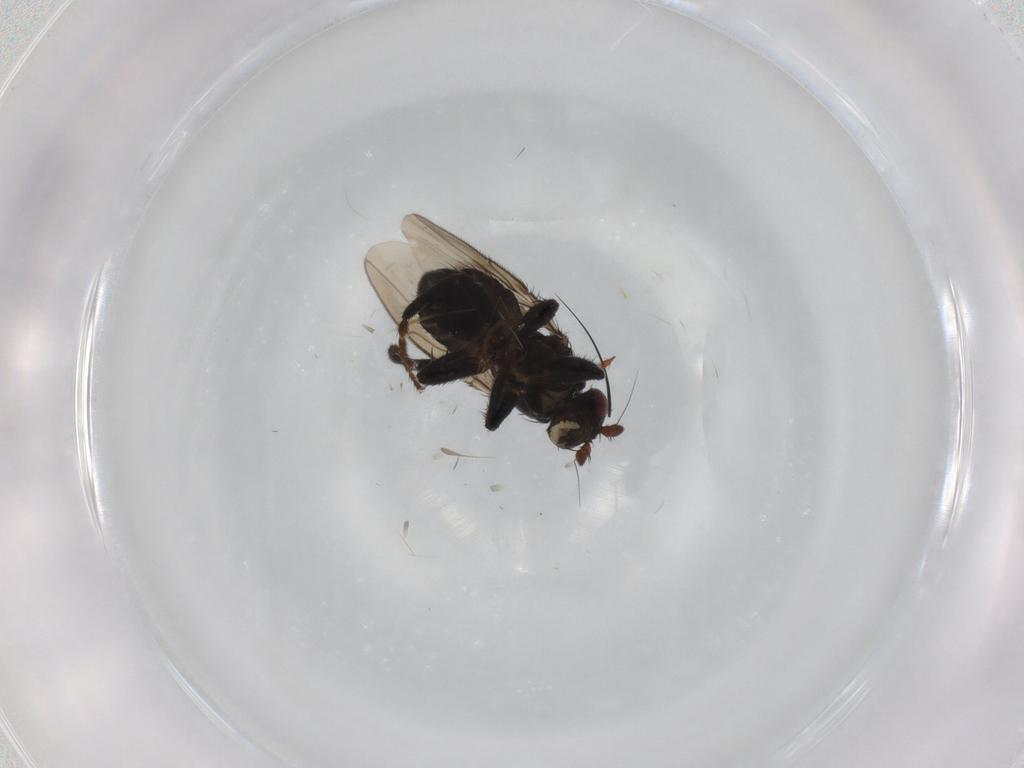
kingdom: Animalia
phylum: Arthropoda
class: Insecta
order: Diptera
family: Sphaeroceridae
